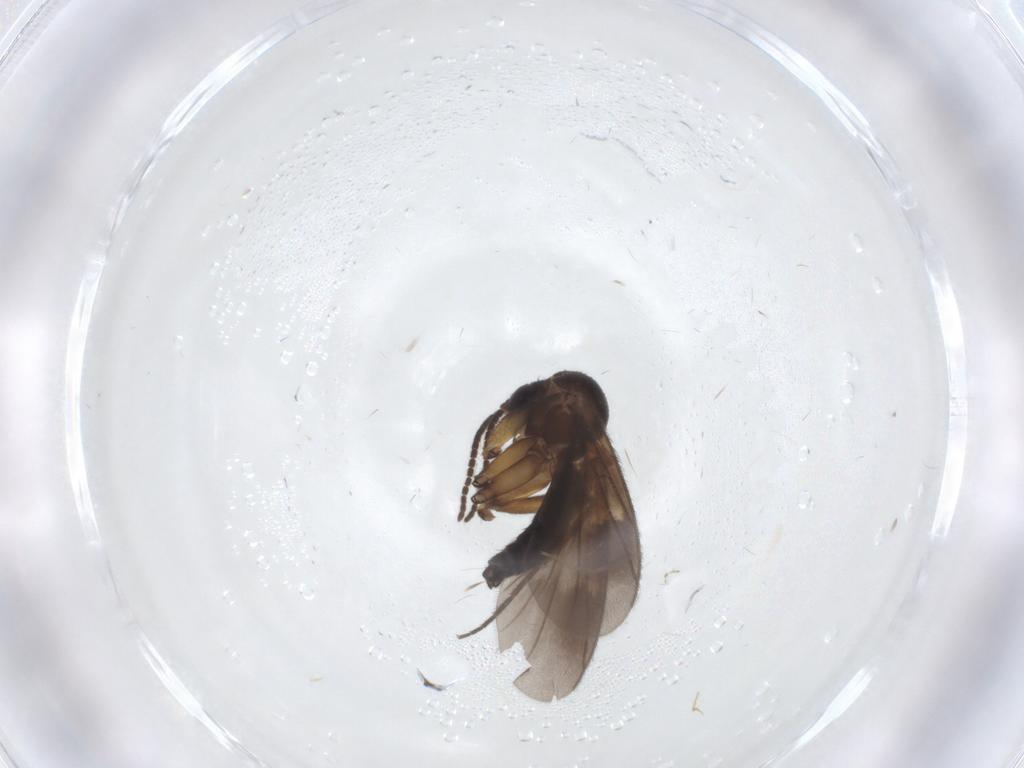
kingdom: Animalia
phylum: Arthropoda
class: Insecta
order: Diptera
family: Mycetophilidae
